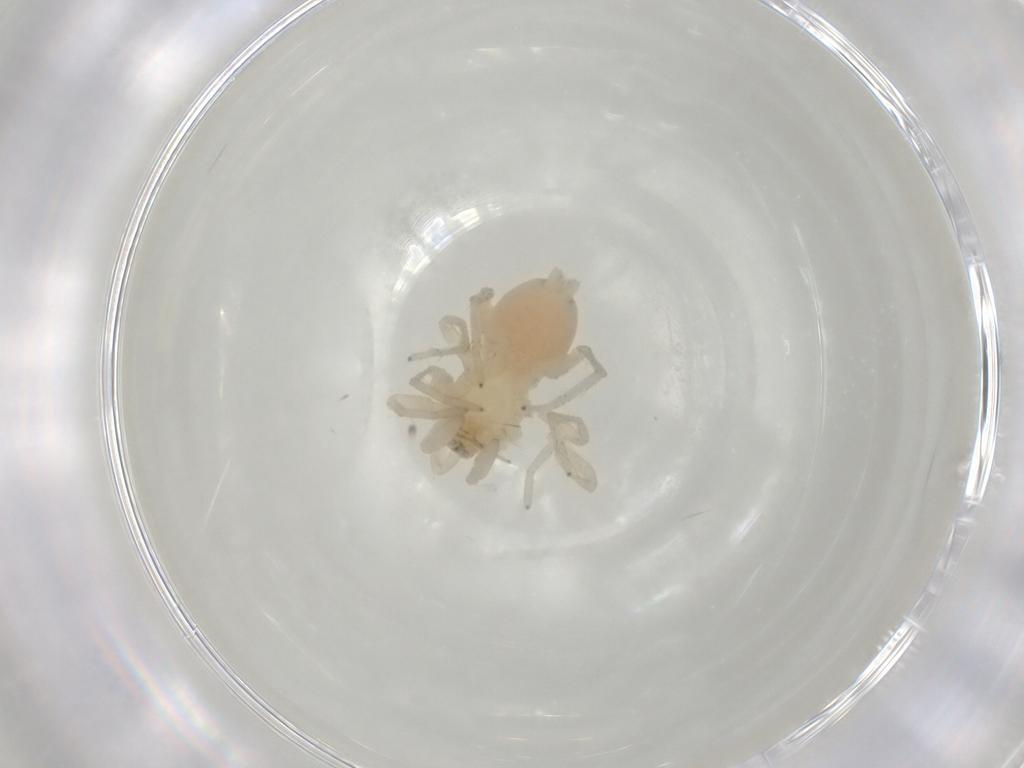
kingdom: Animalia
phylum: Arthropoda
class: Arachnida
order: Araneae
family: Gnaphosidae
